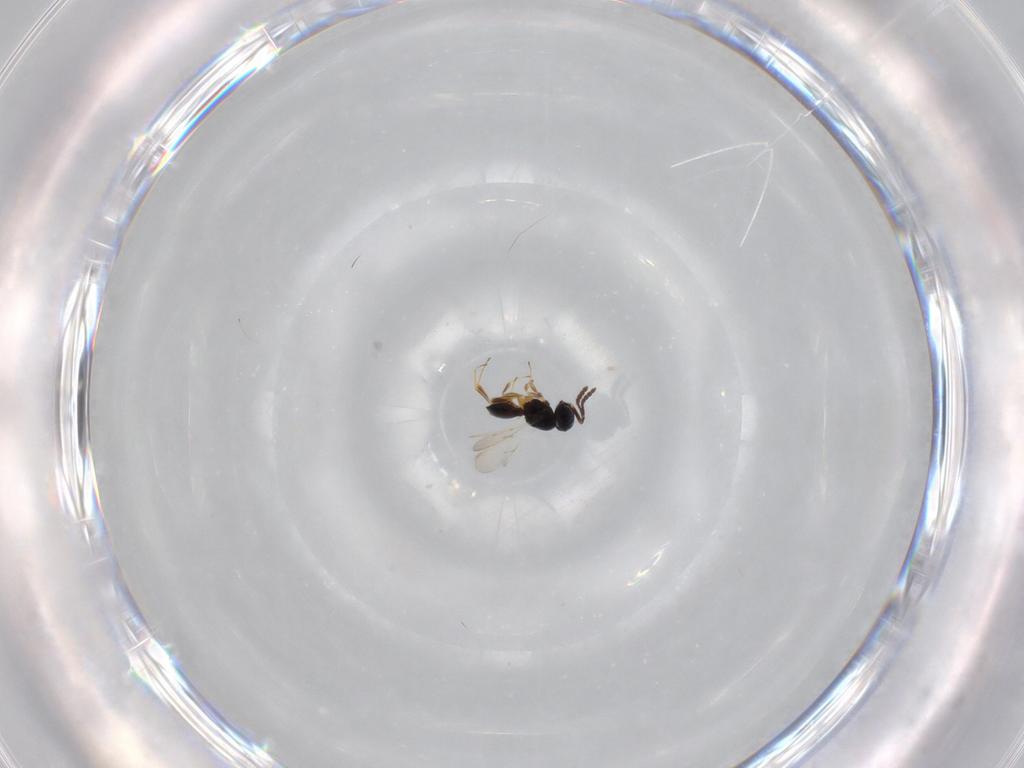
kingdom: Animalia
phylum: Arthropoda
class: Insecta
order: Hymenoptera
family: Scelionidae
